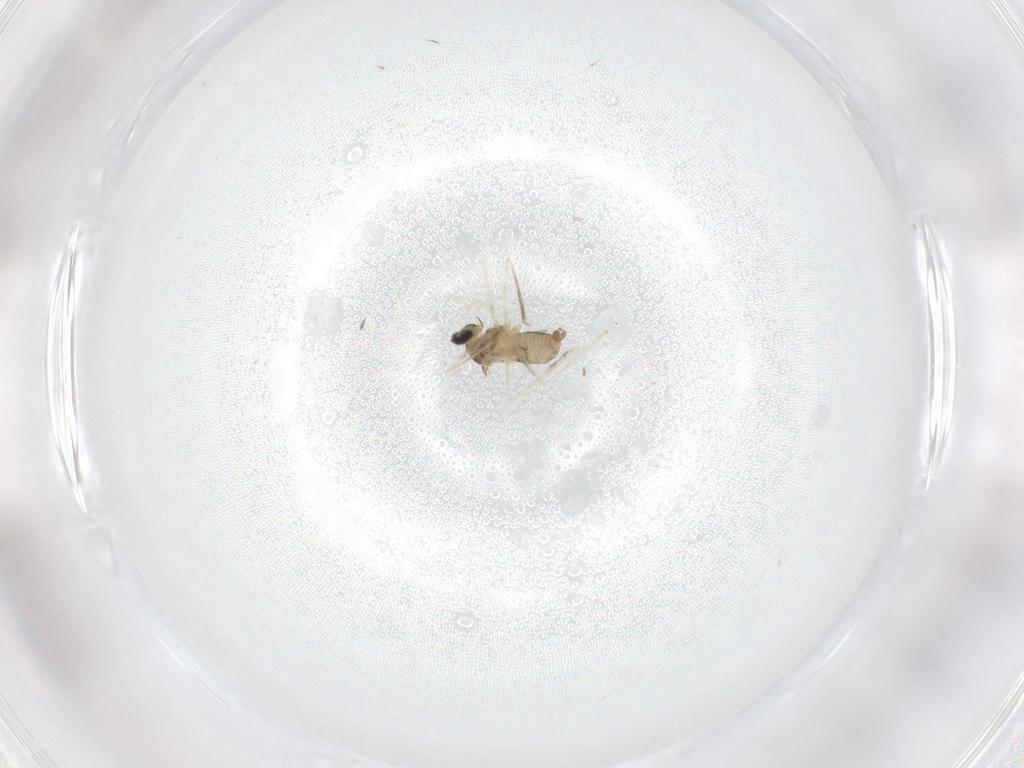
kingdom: Animalia
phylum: Arthropoda
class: Insecta
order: Diptera
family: Cecidomyiidae
